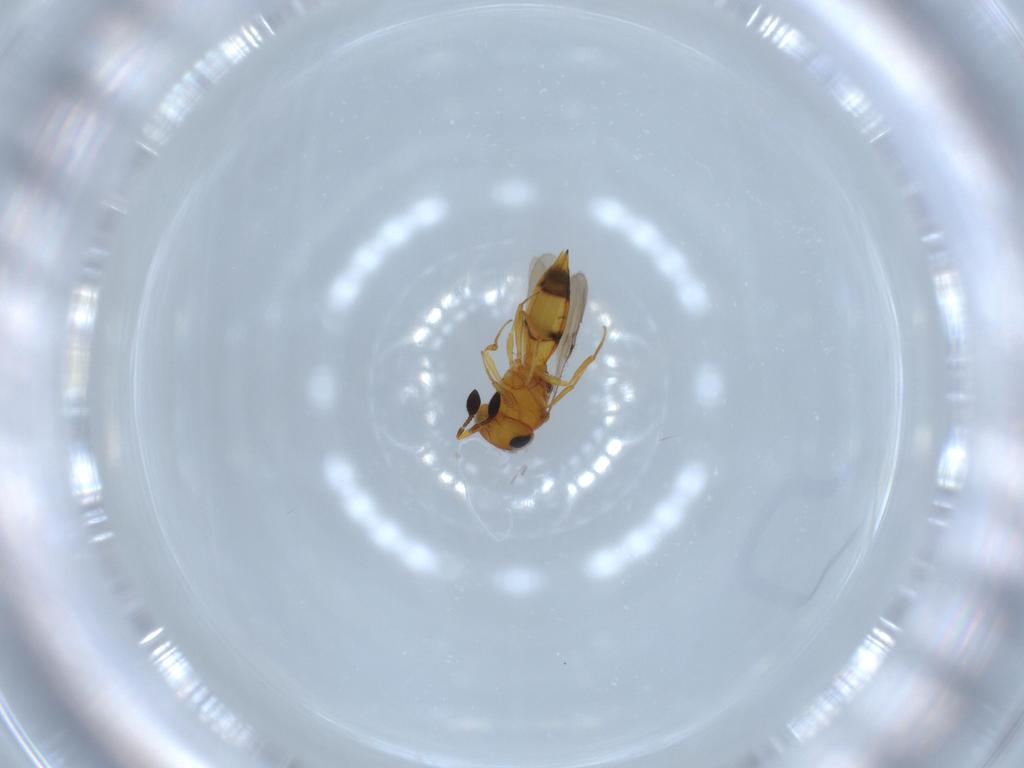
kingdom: Animalia
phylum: Arthropoda
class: Insecta
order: Hymenoptera
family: Scelionidae
